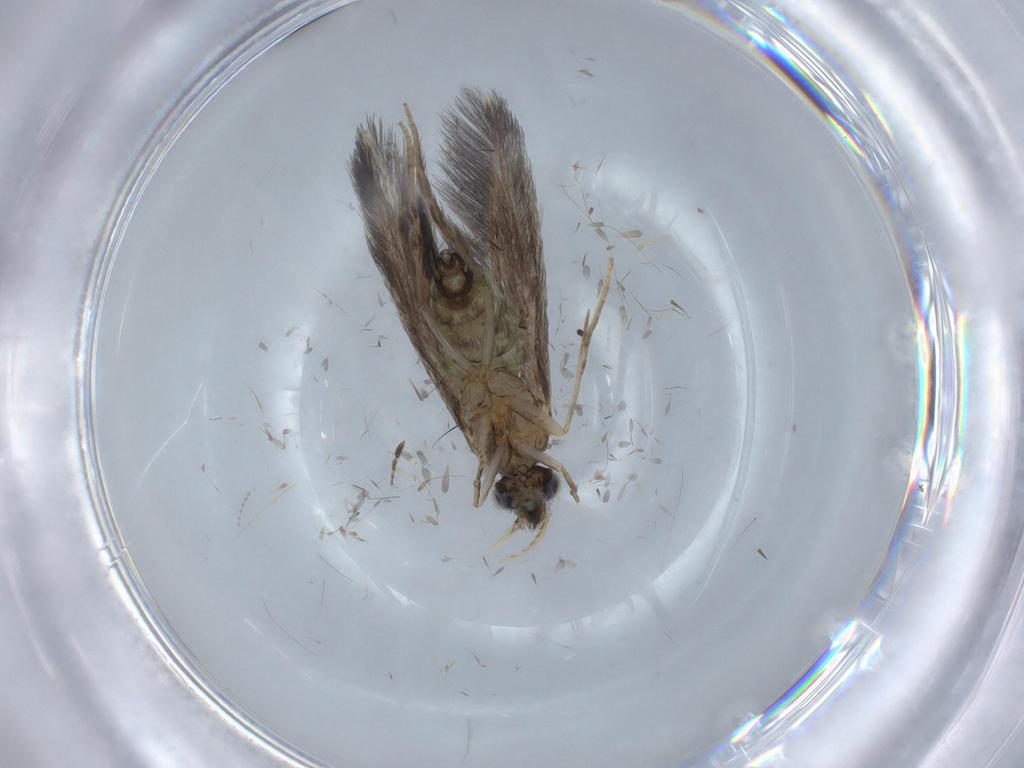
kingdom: Animalia
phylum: Arthropoda
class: Insecta
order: Trichoptera
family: Hydroptilidae
